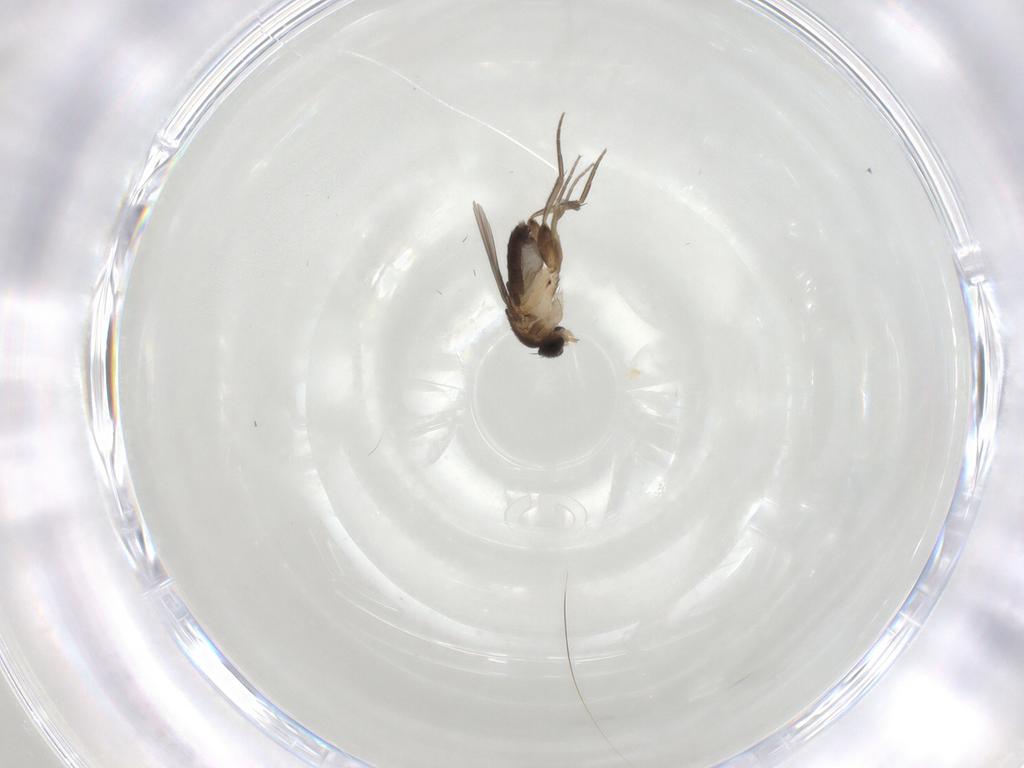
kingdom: Animalia
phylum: Arthropoda
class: Insecta
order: Diptera
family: Phoridae
